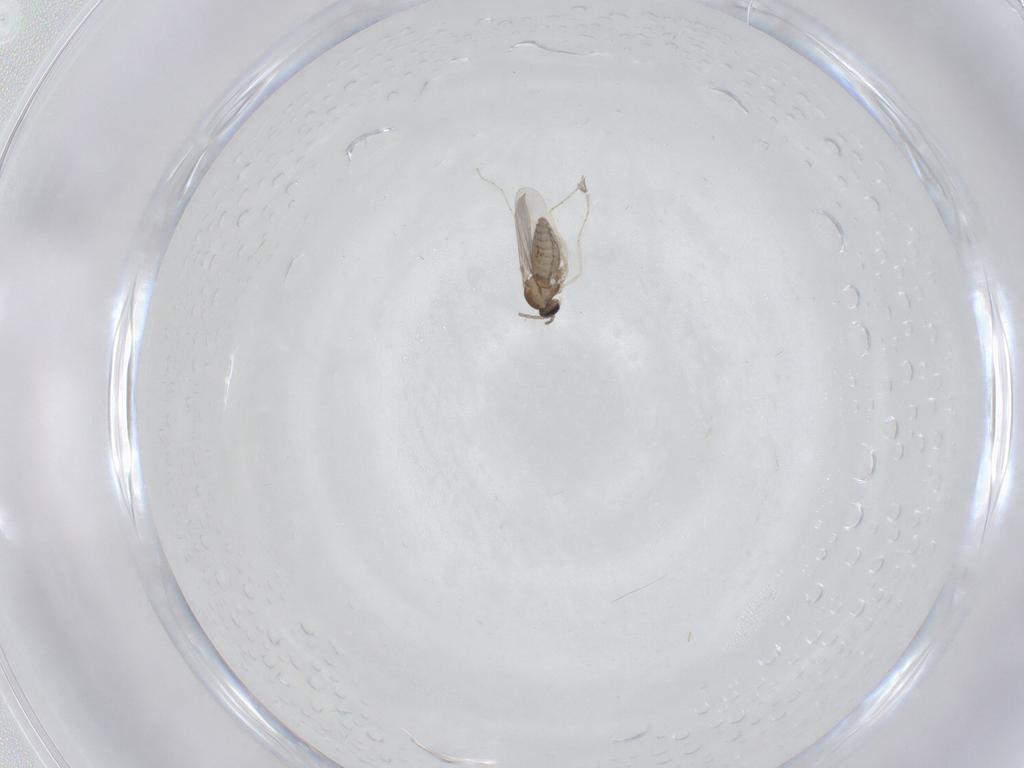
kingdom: Animalia
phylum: Arthropoda
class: Insecta
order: Diptera
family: Cecidomyiidae
